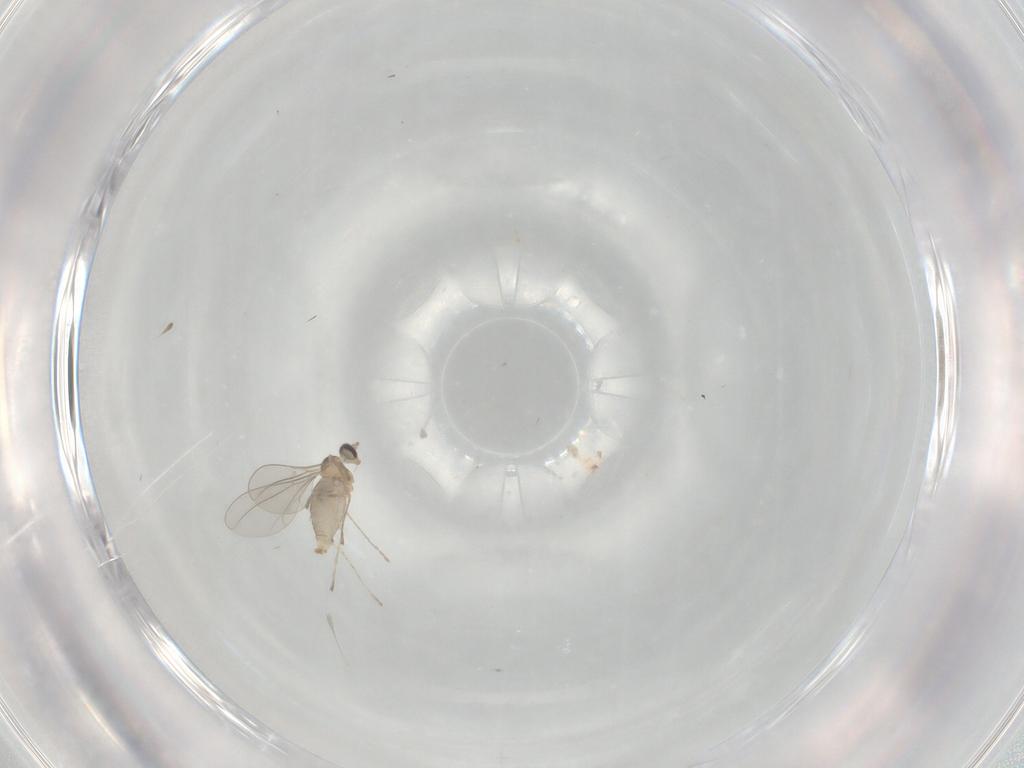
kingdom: Animalia
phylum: Arthropoda
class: Insecta
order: Diptera
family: Cecidomyiidae
